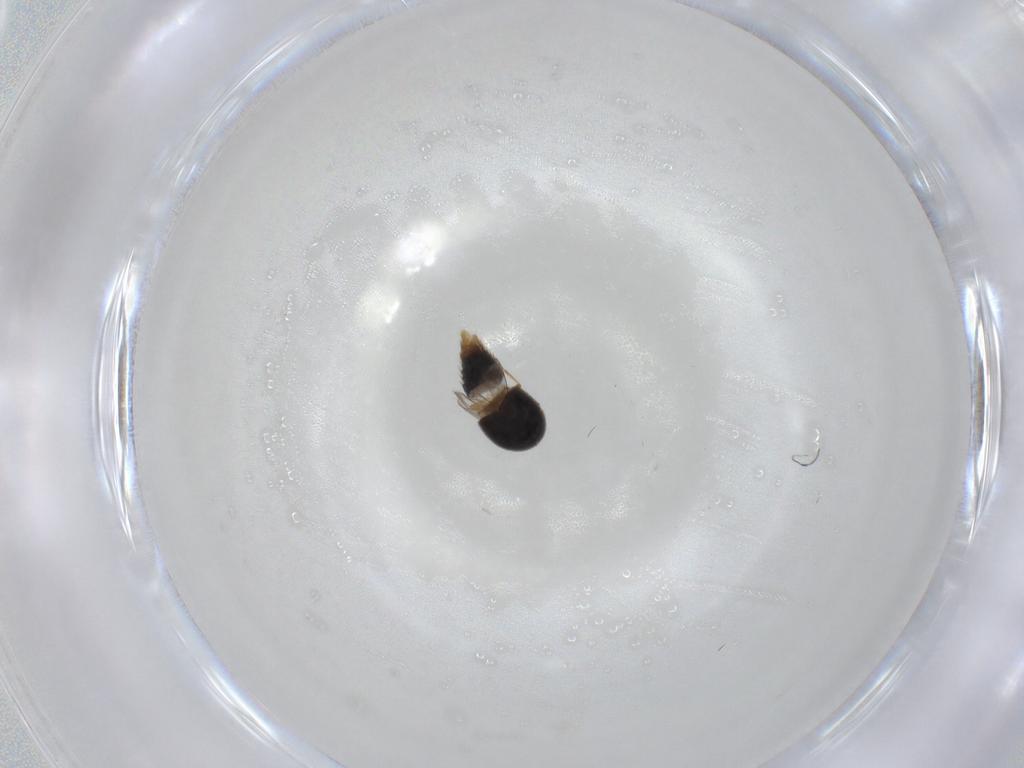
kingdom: Animalia
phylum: Arthropoda
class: Insecta
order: Coleoptera
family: Staphylinidae
